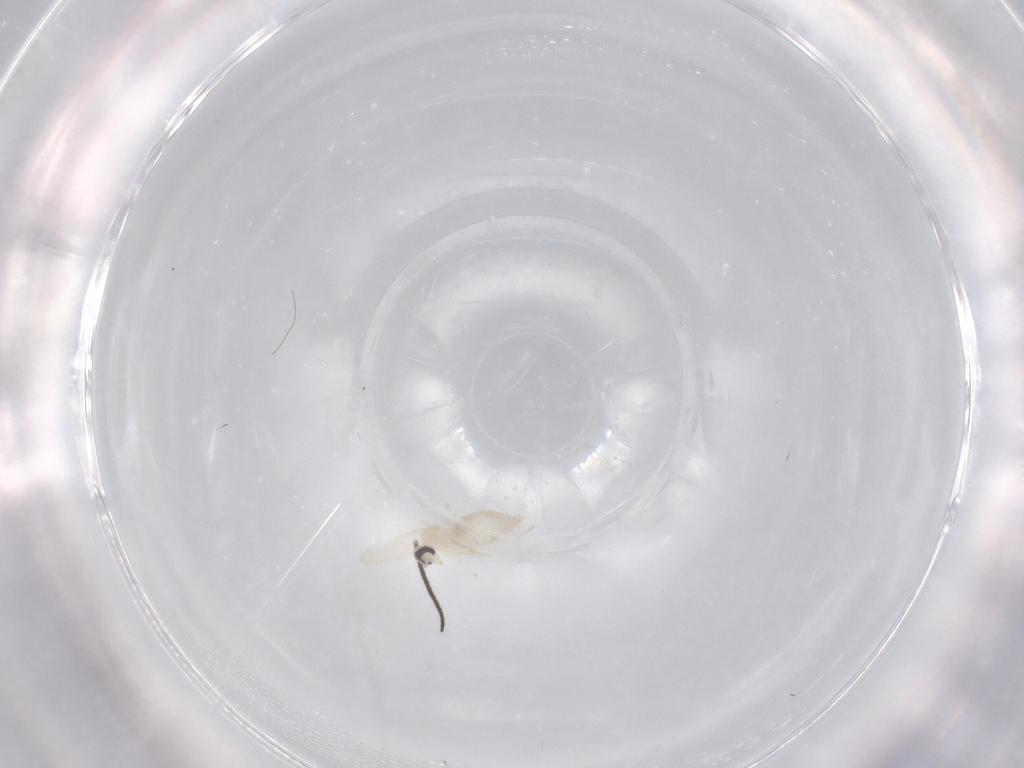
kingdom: Animalia
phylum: Arthropoda
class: Insecta
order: Diptera
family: Cecidomyiidae
